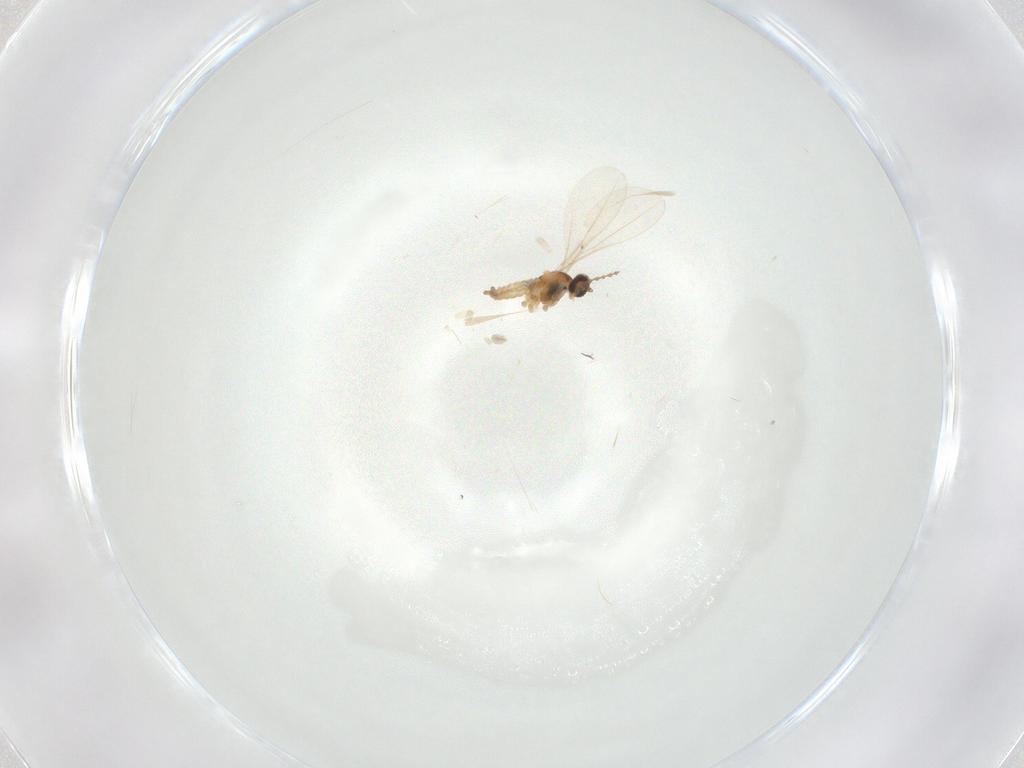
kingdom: Animalia
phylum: Arthropoda
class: Insecta
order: Diptera
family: Cecidomyiidae
